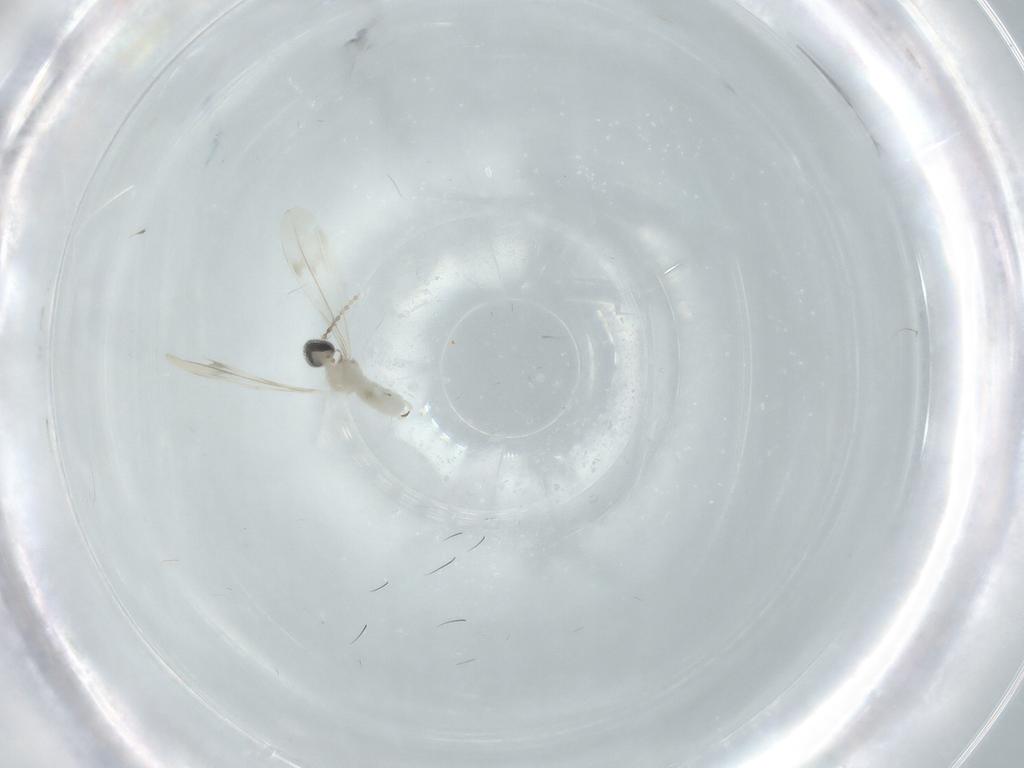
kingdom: Animalia
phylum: Arthropoda
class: Insecta
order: Diptera
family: Cecidomyiidae
